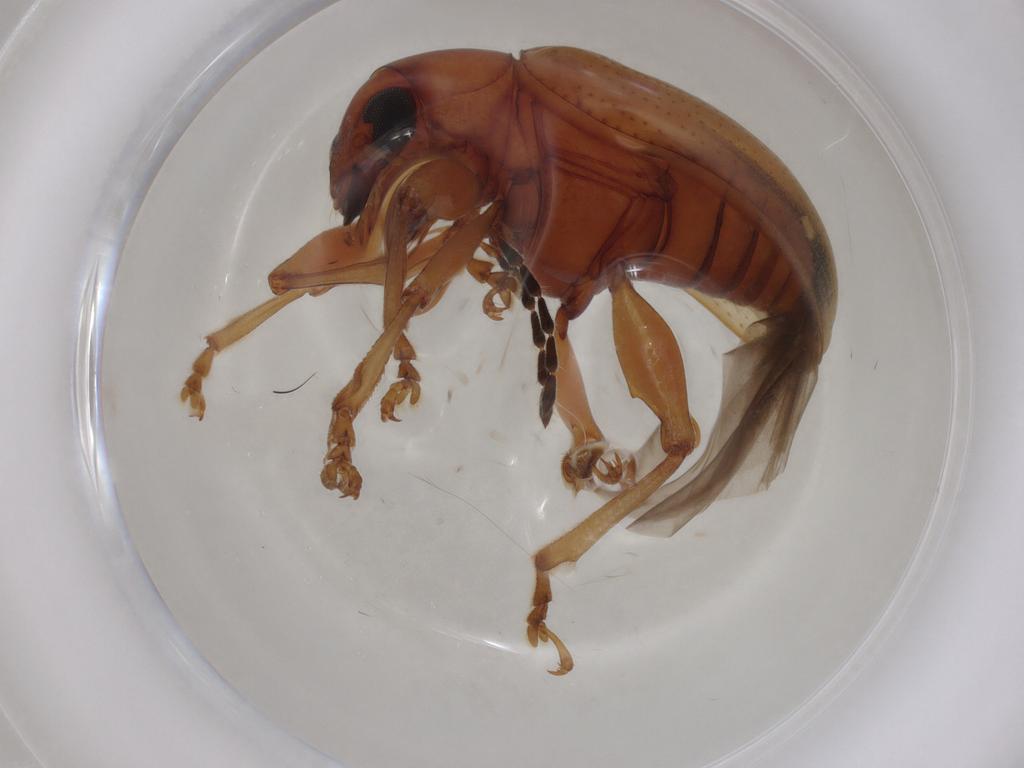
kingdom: Animalia
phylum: Arthropoda
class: Insecta
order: Coleoptera
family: Chrysomelidae
